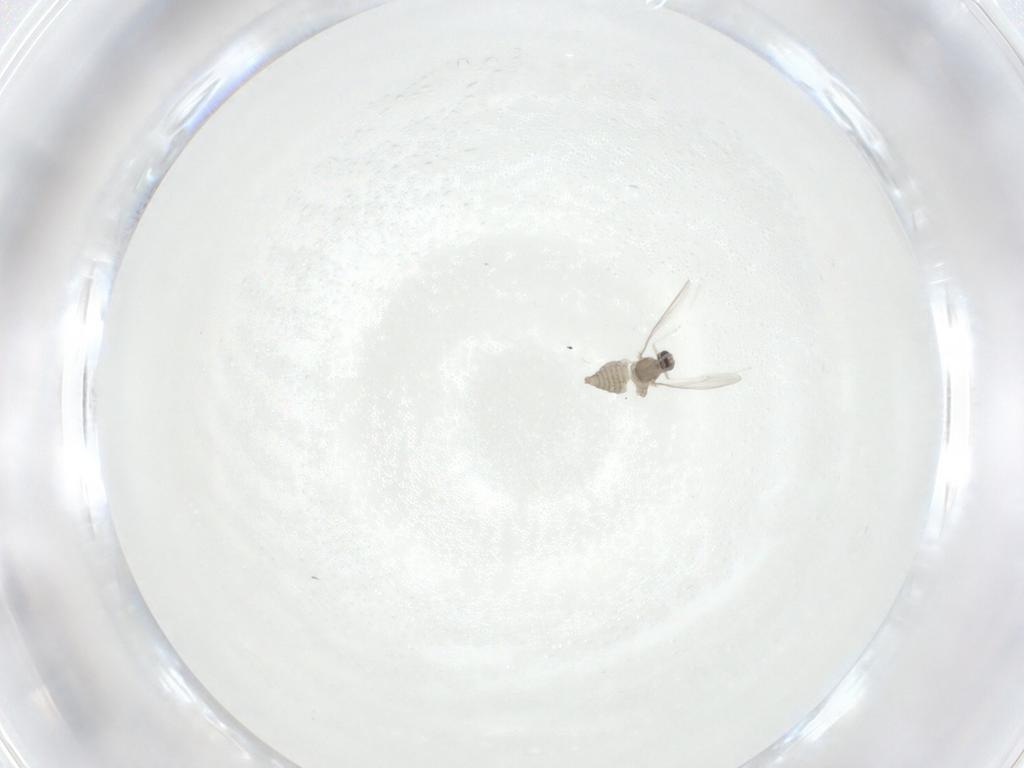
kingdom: Animalia
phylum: Arthropoda
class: Insecta
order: Diptera
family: Cecidomyiidae
